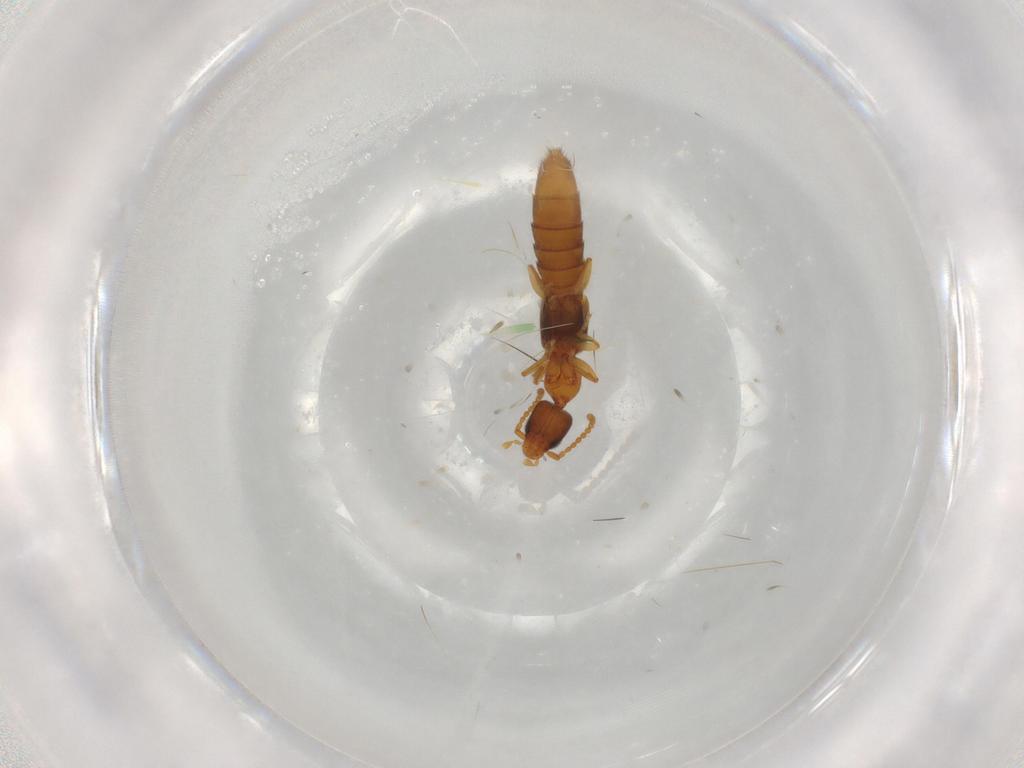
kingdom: Animalia
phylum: Arthropoda
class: Insecta
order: Coleoptera
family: Staphylinidae
